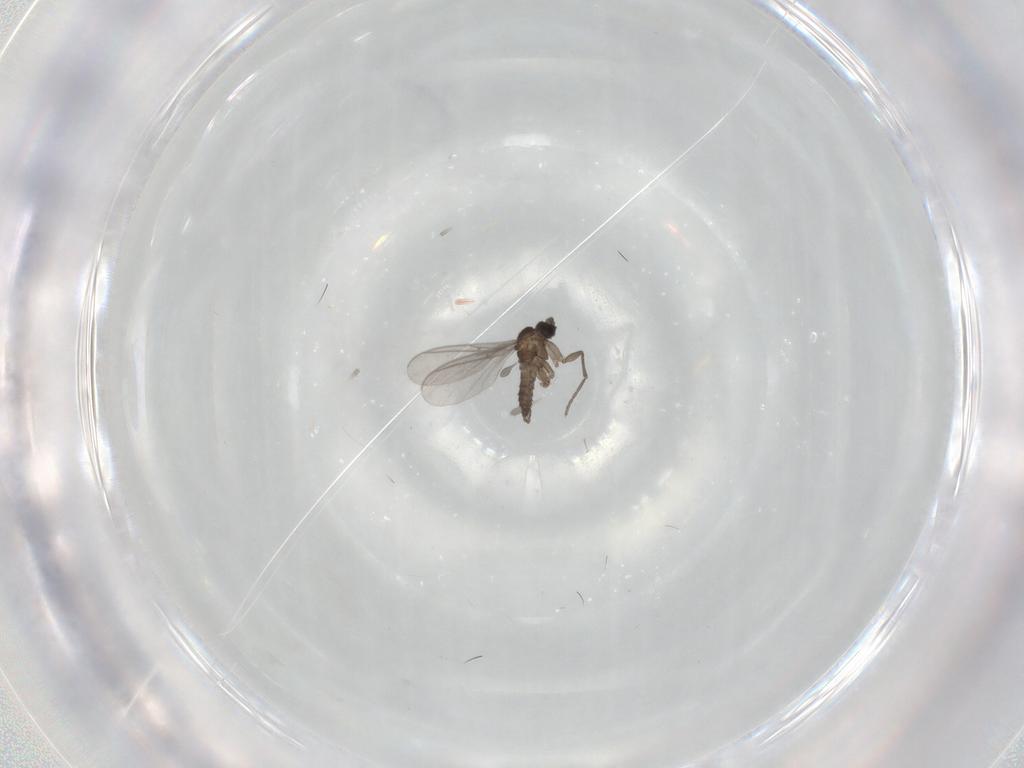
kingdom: Animalia
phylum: Arthropoda
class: Insecta
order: Diptera
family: Sciaridae
